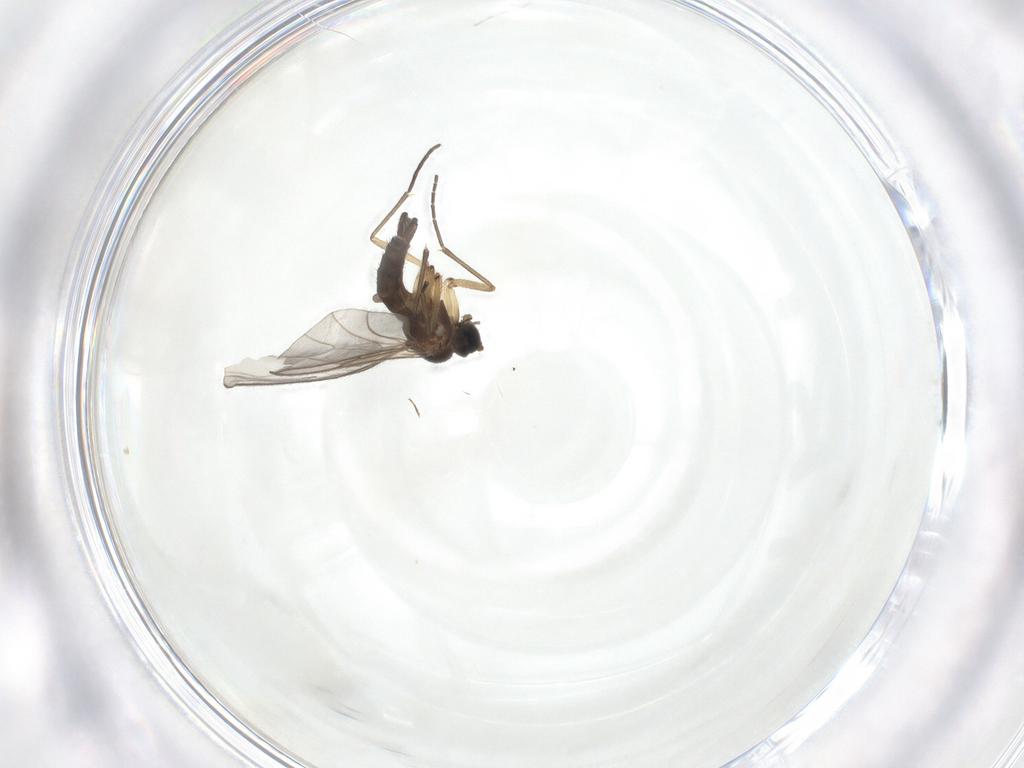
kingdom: Animalia
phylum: Arthropoda
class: Insecta
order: Diptera
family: Sciaridae
